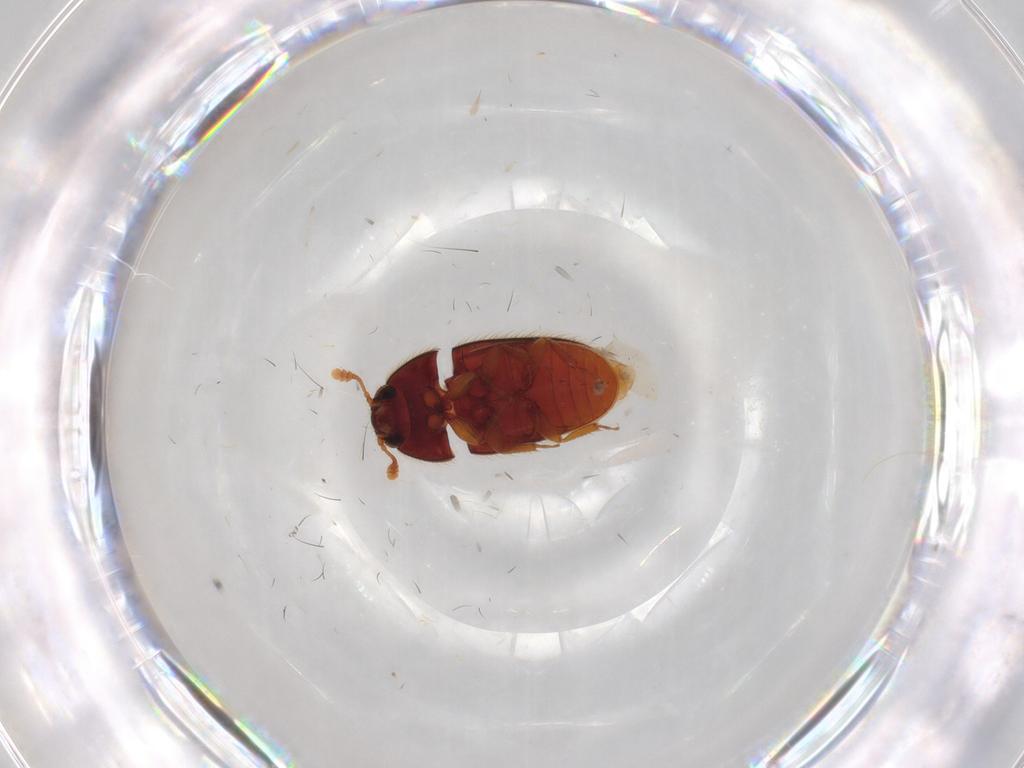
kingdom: Animalia
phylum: Arthropoda
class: Insecta
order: Coleoptera
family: Biphyllidae
